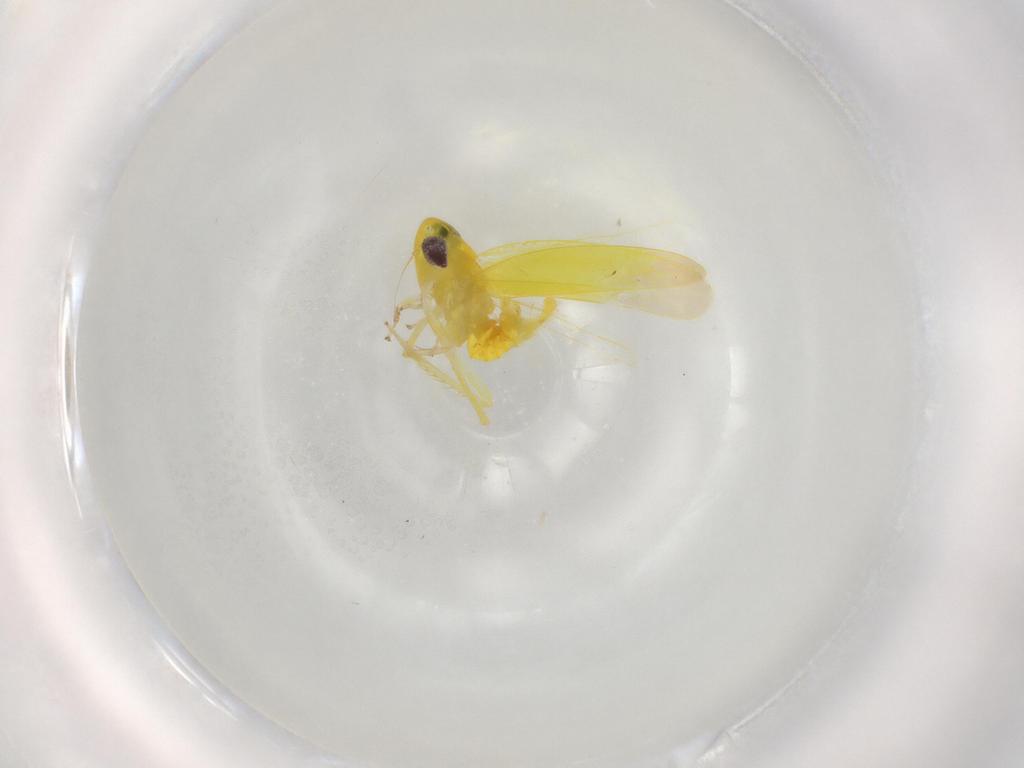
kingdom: Animalia
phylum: Arthropoda
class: Insecta
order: Hemiptera
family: Cicadellidae
